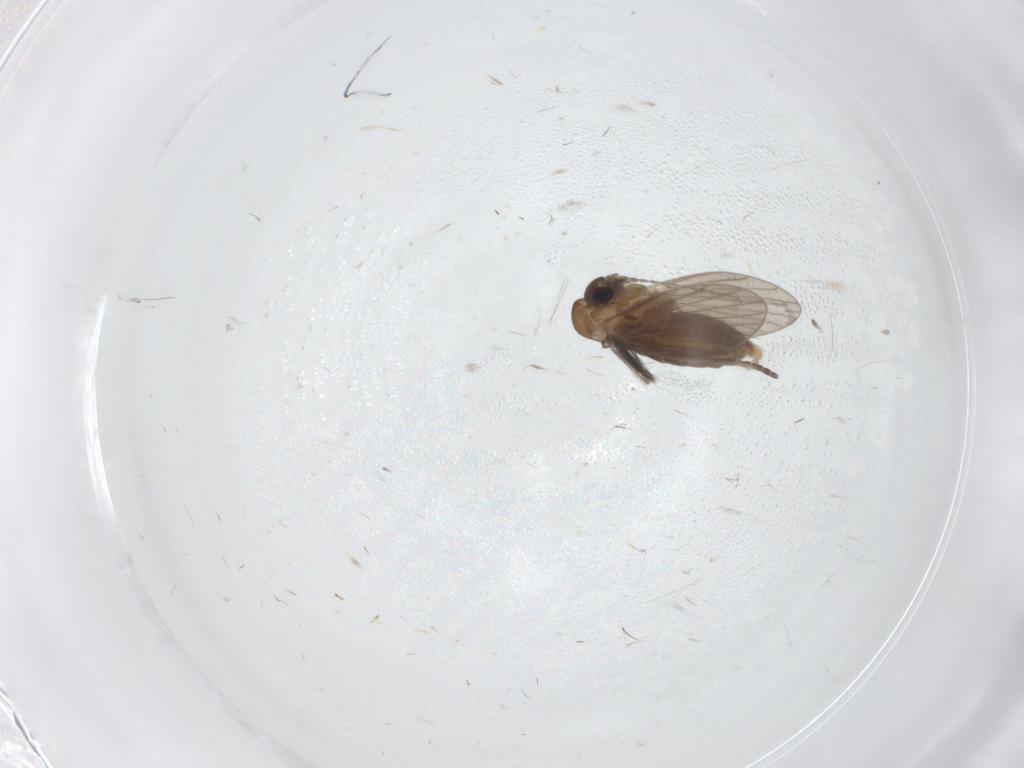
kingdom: Animalia
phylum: Arthropoda
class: Insecta
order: Diptera
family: Ceratopogonidae
